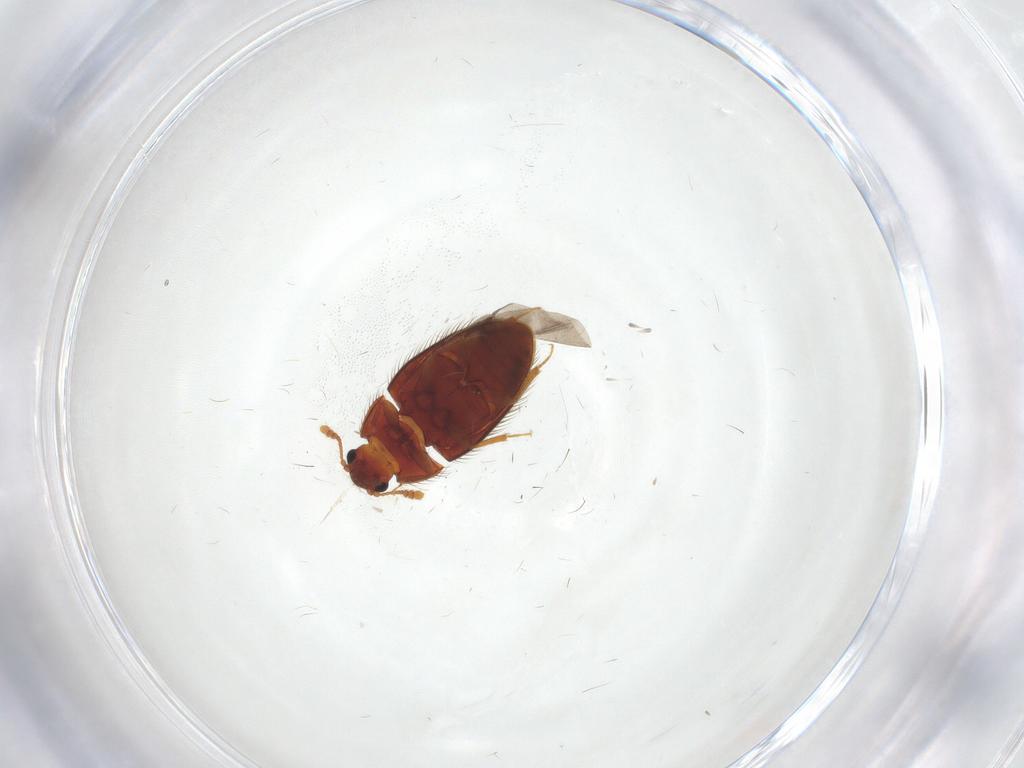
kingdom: Animalia
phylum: Arthropoda
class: Insecta
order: Coleoptera
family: Biphyllidae
